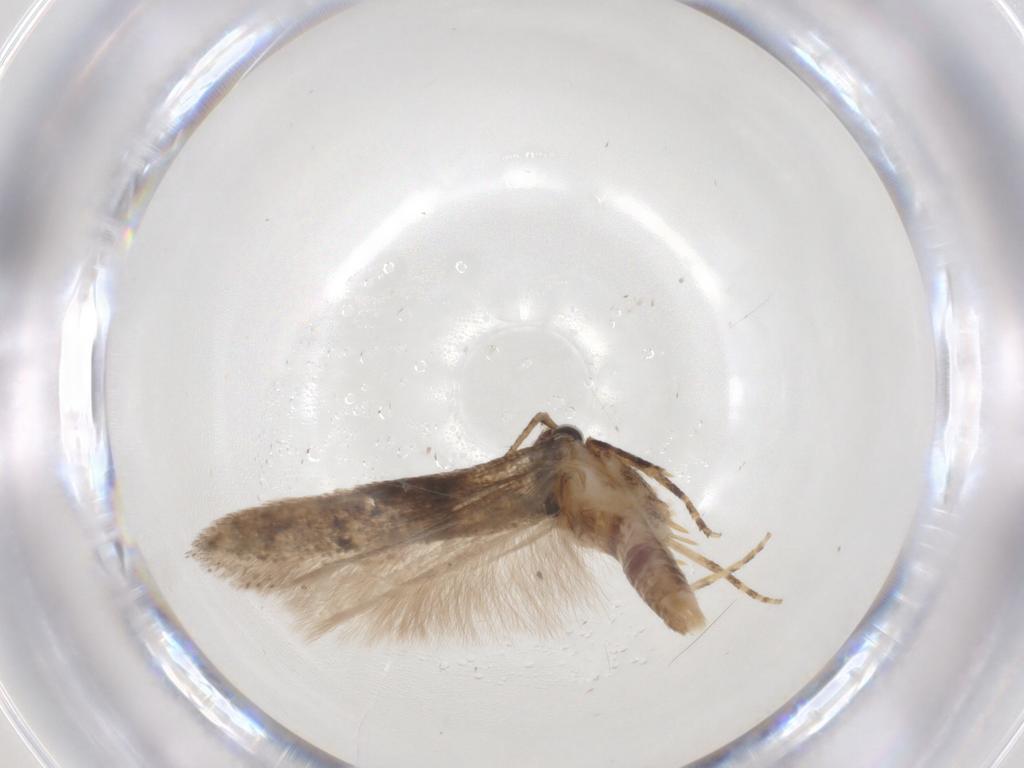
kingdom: Animalia
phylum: Arthropoda
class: Insecta
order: Lepidoptera
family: Gelechiidae
